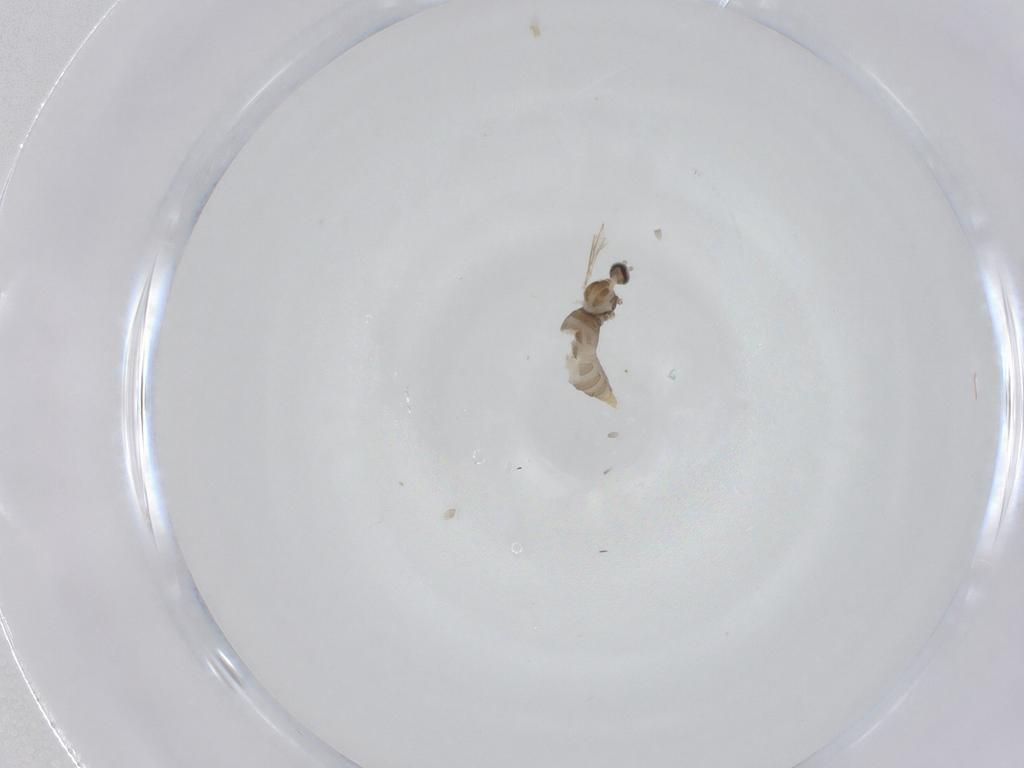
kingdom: Animalia
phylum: Arthropoda
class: Insecta
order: Diptera
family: Cecidomyiidae
